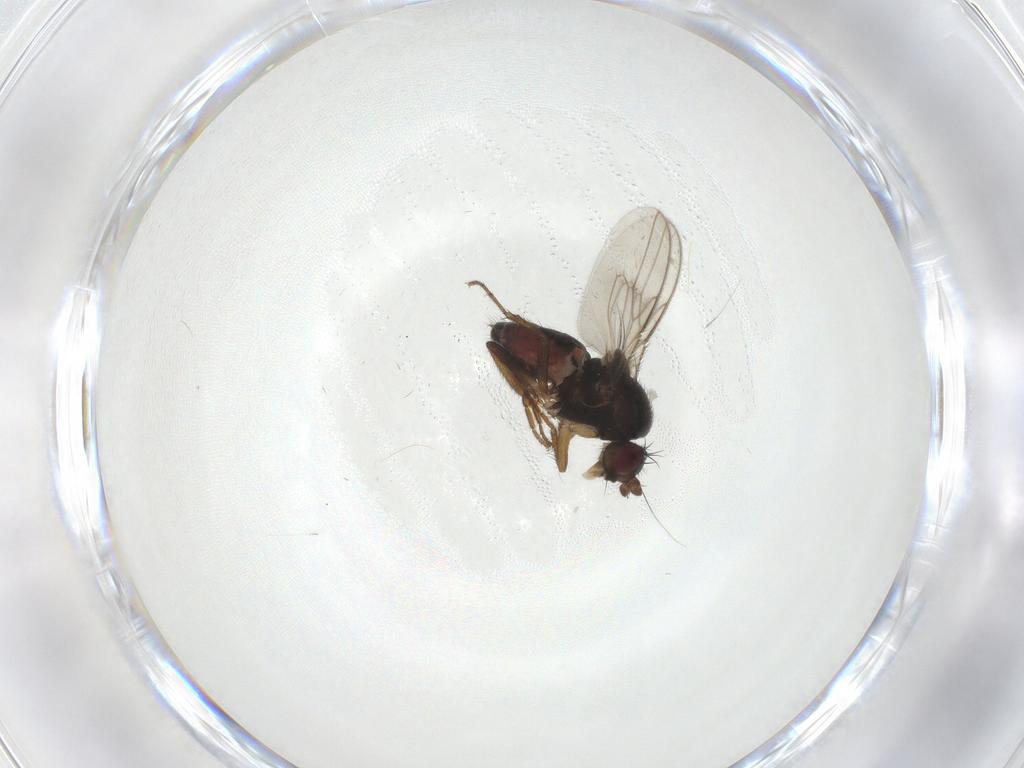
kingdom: Animalia
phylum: Arthropoda
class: Insecta
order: Diptera
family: Sphaeroceridae
